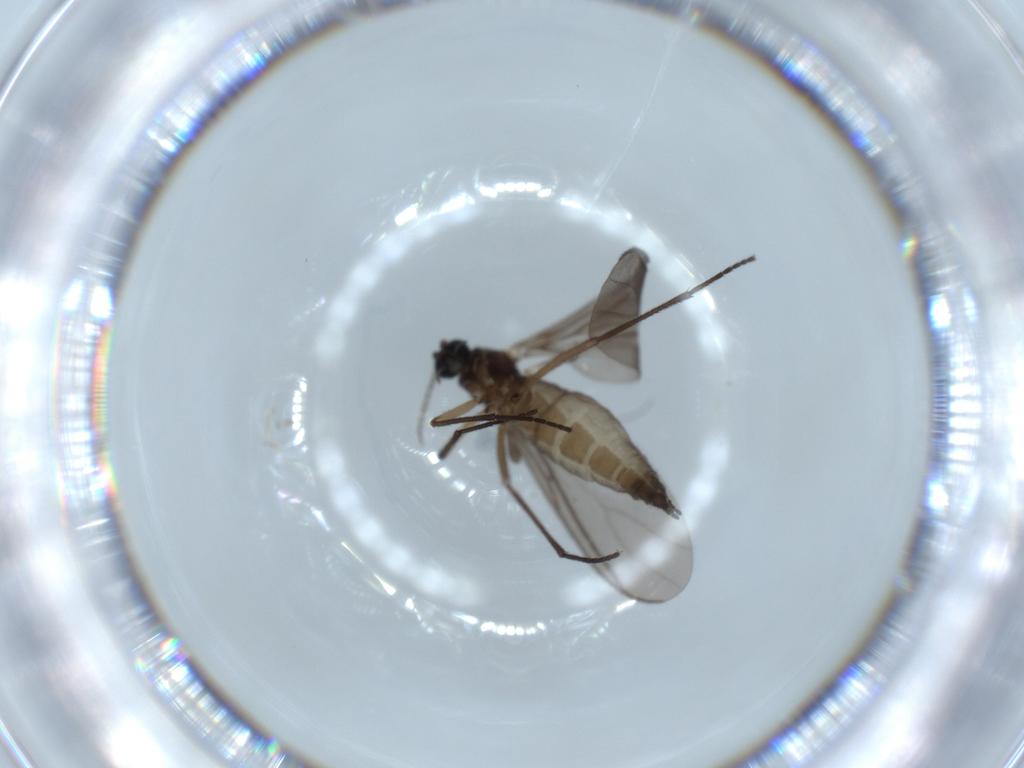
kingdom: Animalia
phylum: Arthropoda
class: Insecta
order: Diptera
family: Sciaridae
